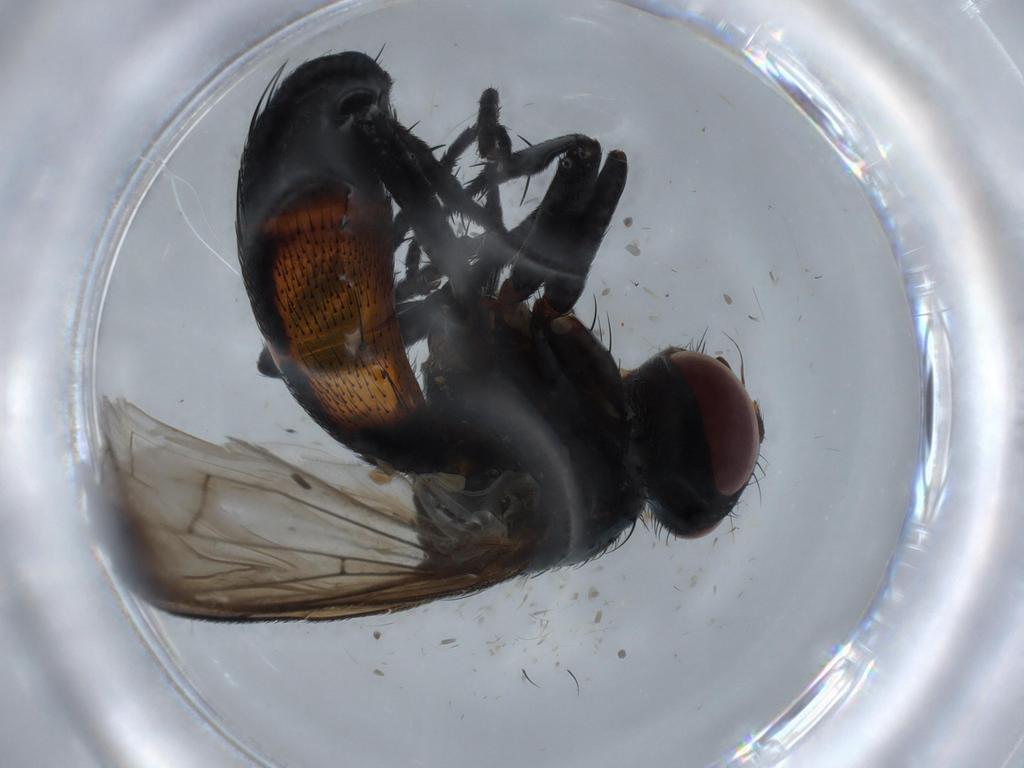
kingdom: Animalia
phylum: Arthropoda
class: Insecta
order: Diptera
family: Tachinidae
